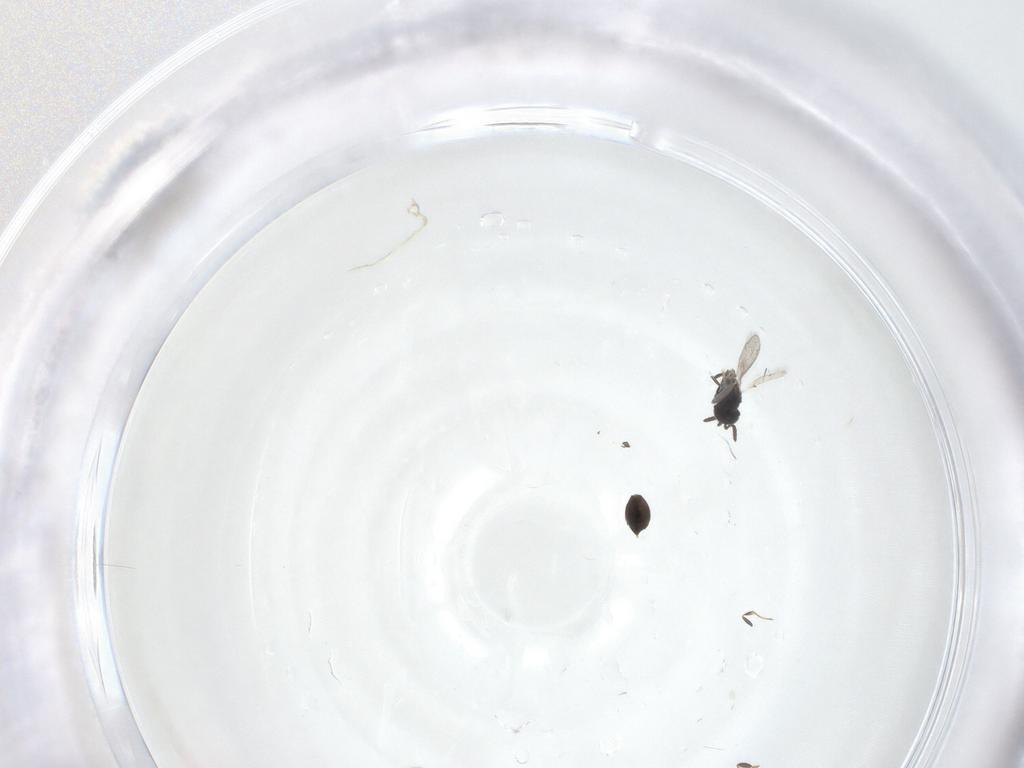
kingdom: Animalia
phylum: Arthropoda
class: Insecta
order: Hymenoptera
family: Scelionidae
